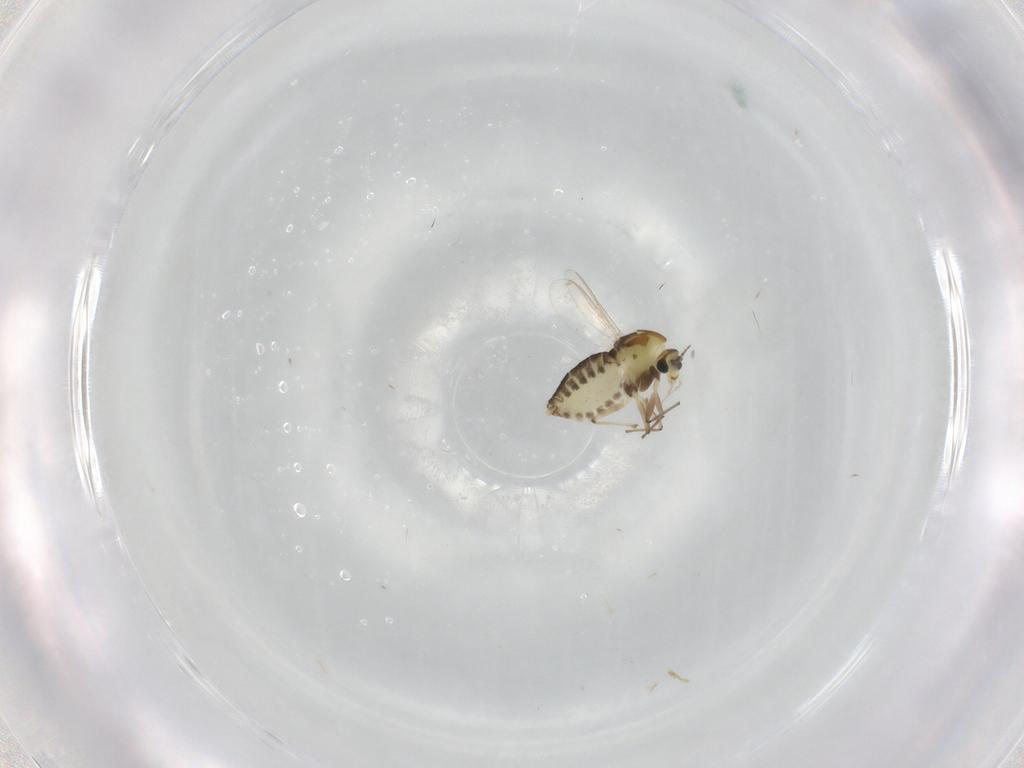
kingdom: Animalia
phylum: Arthropoda
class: Insecta
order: Diptera
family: Chironomidae
